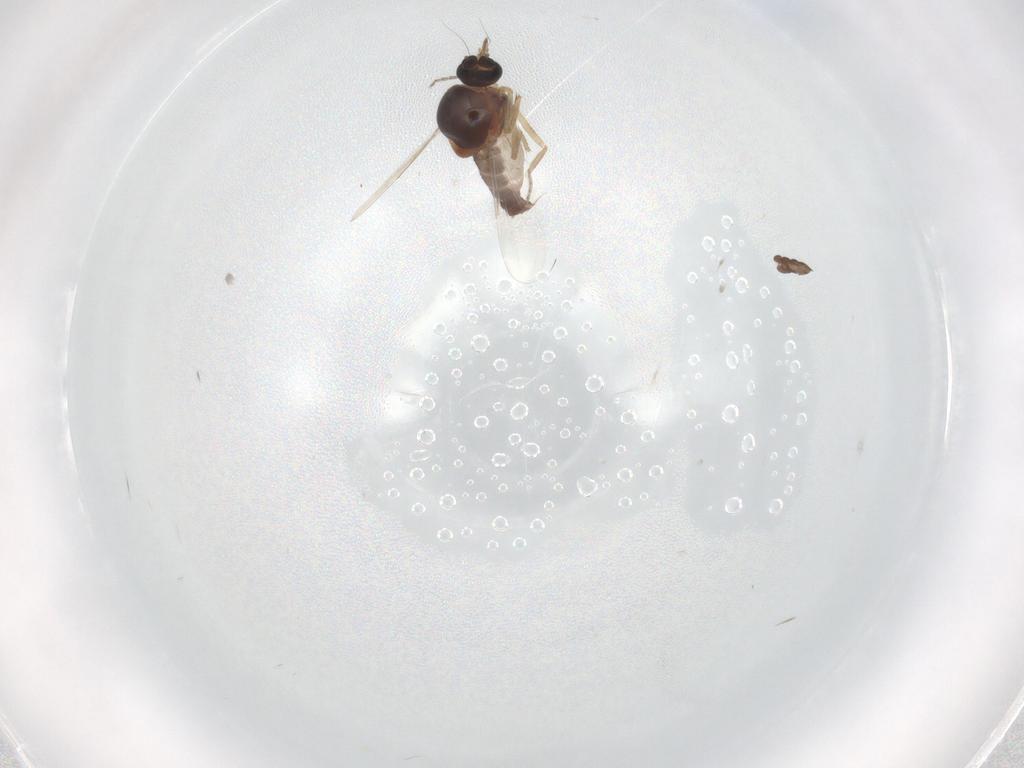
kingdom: Animalia
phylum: Arthropoda
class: Insecta
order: Diptera
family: Ceratopogonidae
